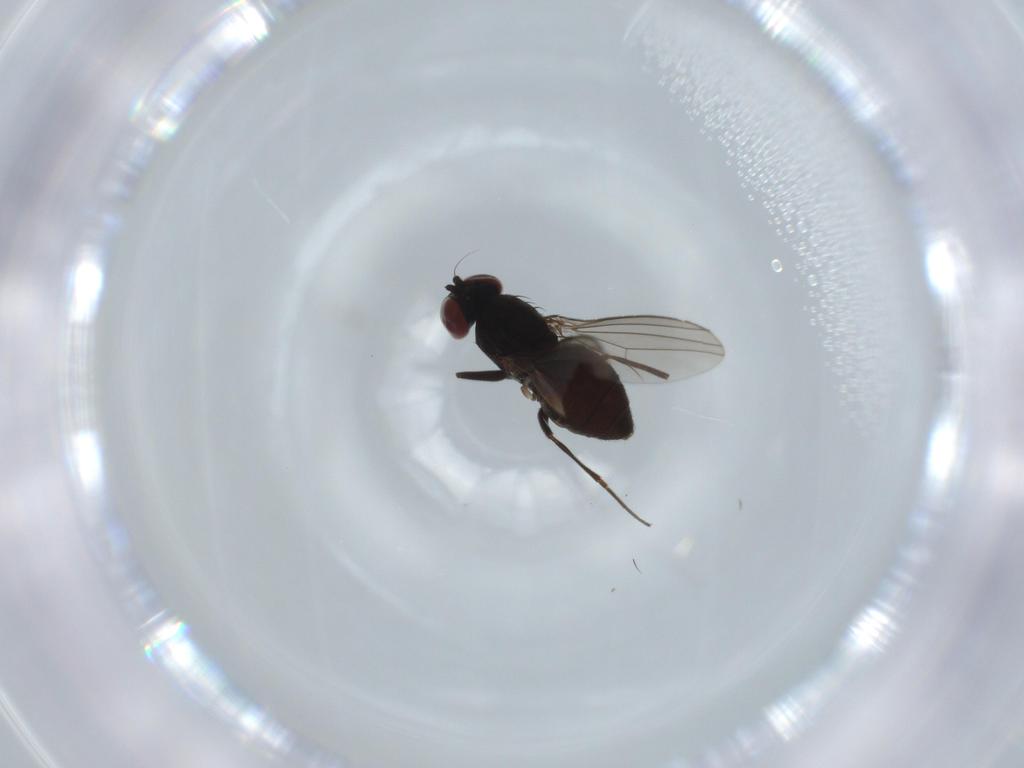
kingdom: Animalia
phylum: Arthropoda
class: Insecta
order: Diptera
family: Dolichopodidae
